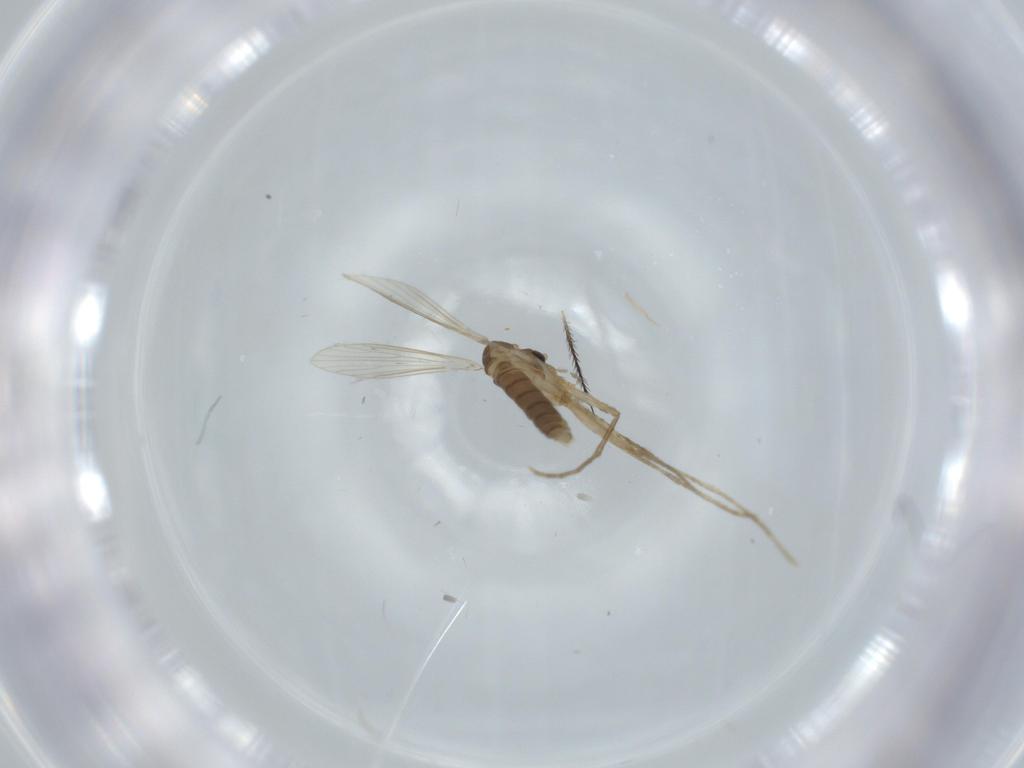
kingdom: Animalia
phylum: Arthropoda
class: Insecta
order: Diptera
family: Psychodidae
